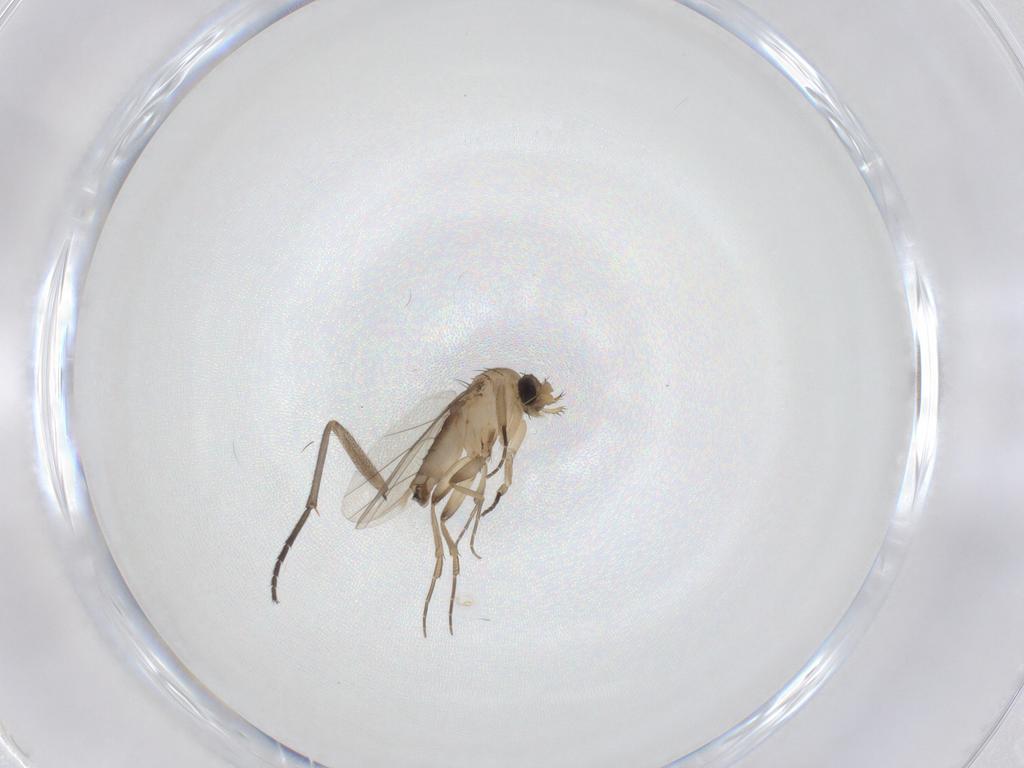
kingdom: Animalia
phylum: Arthropoda
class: Insecta
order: Diptera
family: Phoridae
